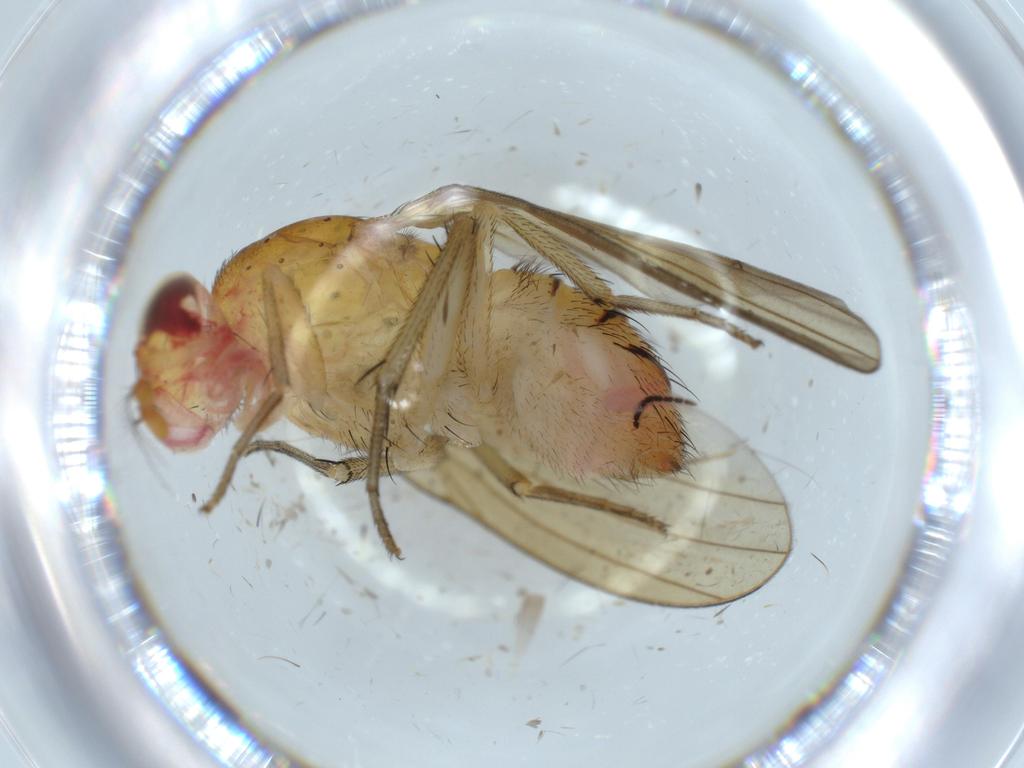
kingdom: Animalia
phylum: Arthropoda
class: Insecta
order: Diptera
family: Sciaridae
